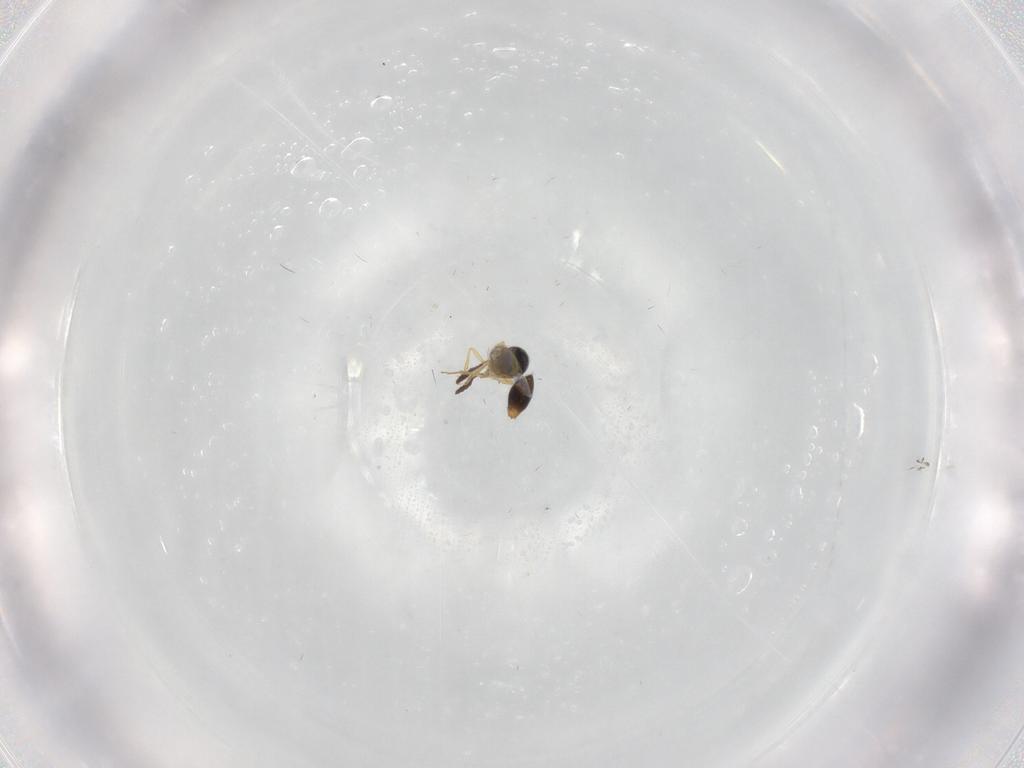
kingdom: Animalia
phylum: Arthropoda
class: Insecta
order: Hymenoptera
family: Scelionidae
